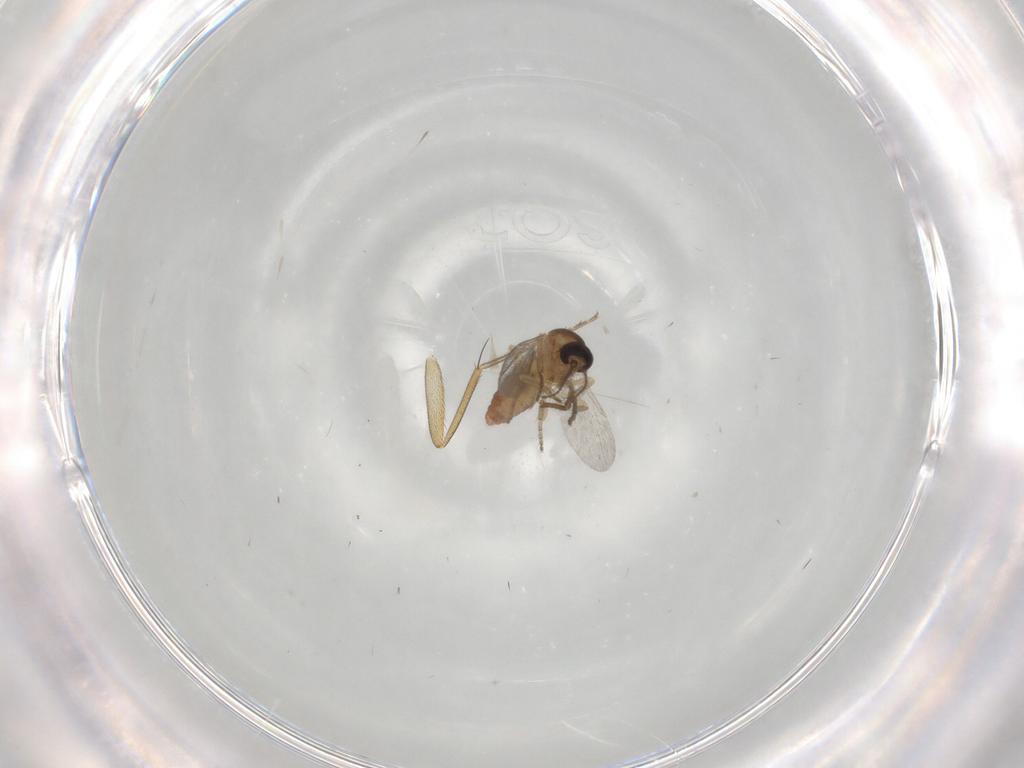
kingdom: Animalia
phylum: Arthropoda
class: Insecta
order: Diptera
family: Phoridae
